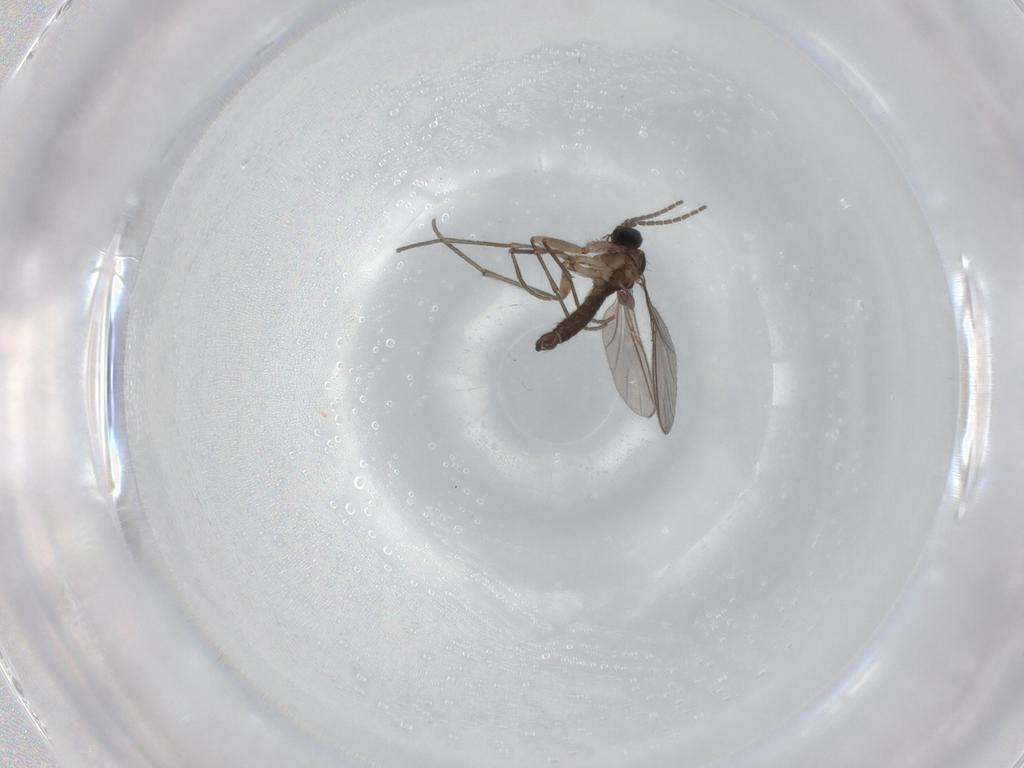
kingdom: Animalia
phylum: Arthropoda
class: Insecta
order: Diptera
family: Sciaridae
